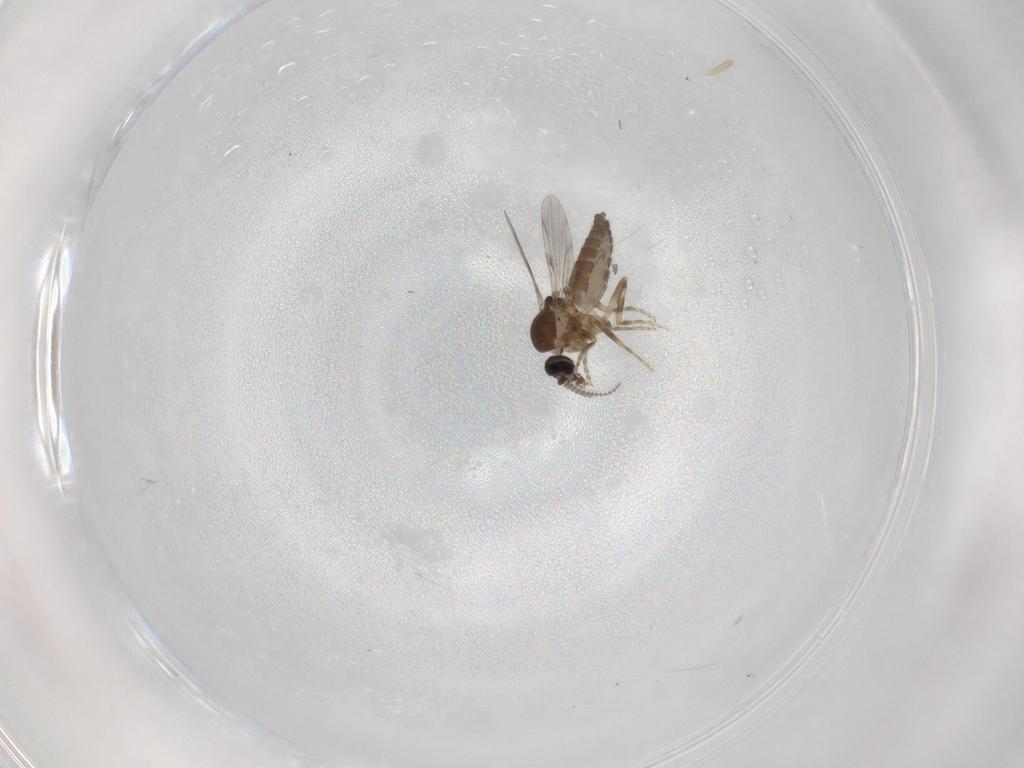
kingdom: Animalia
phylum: Arthropoda
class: Insecta
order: Diptera
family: Ceratopogonidae
